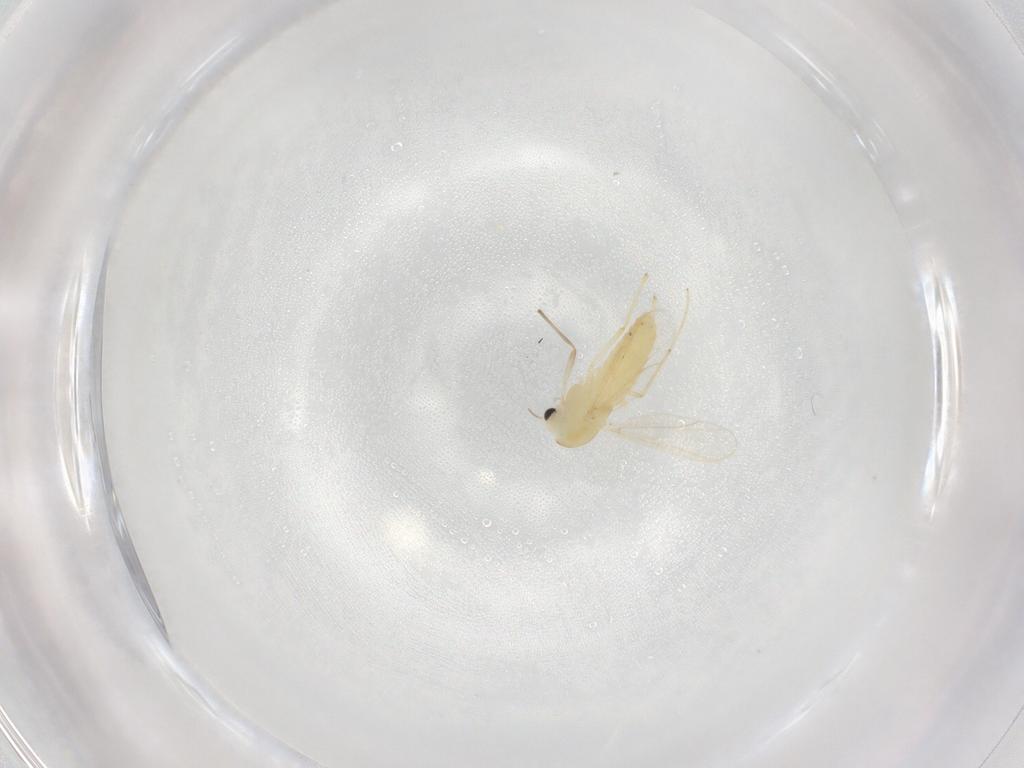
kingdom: Animalia
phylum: Arthropoda
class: Insecta
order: Diptera
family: Chironomidae
